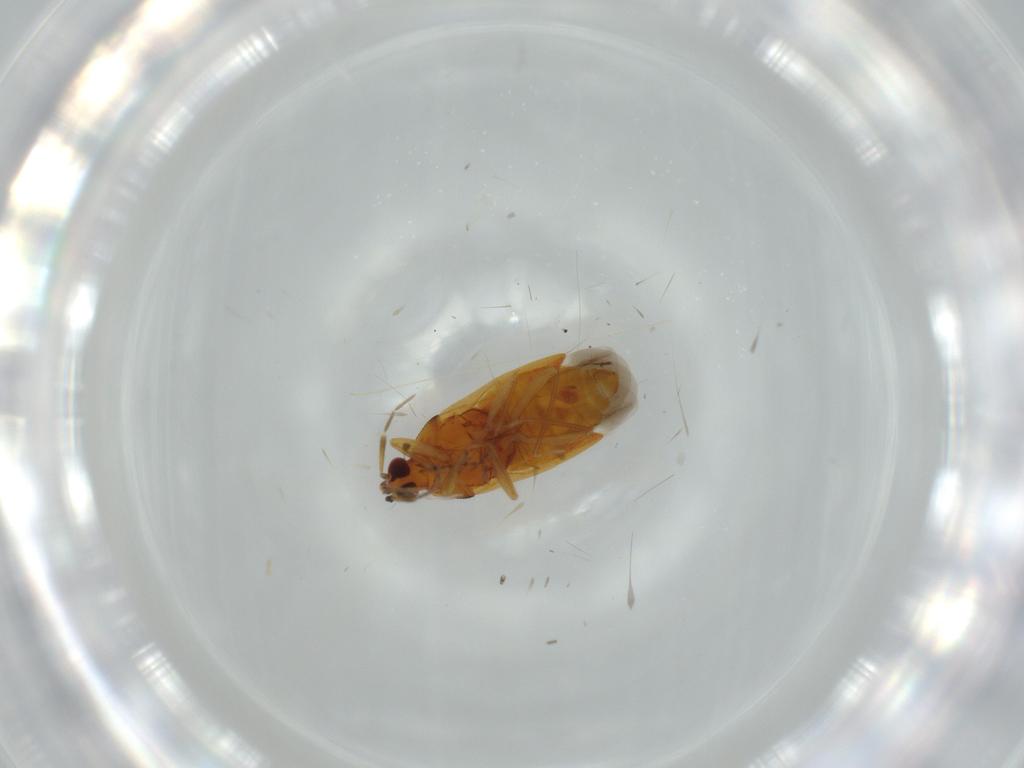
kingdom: Animalia
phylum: Arthropoda
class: Insecta
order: Hemiptera
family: Anthocoridae
